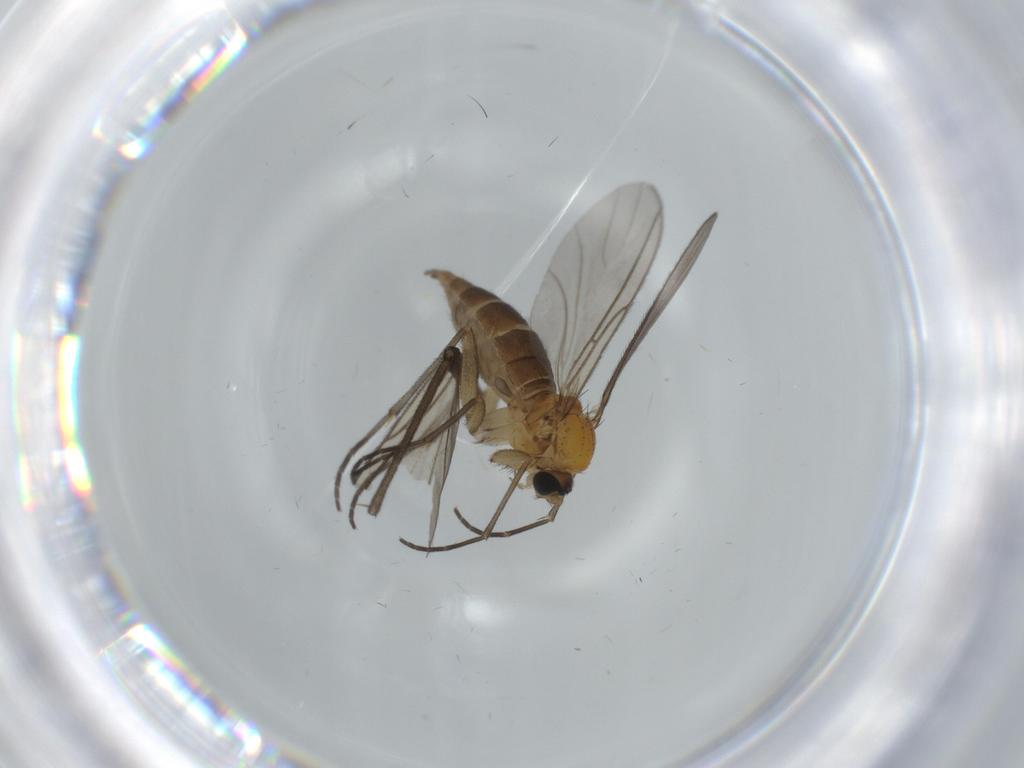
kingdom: Animalia
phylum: Arthropoda
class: Insecta
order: Diptera
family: Sciaridae
